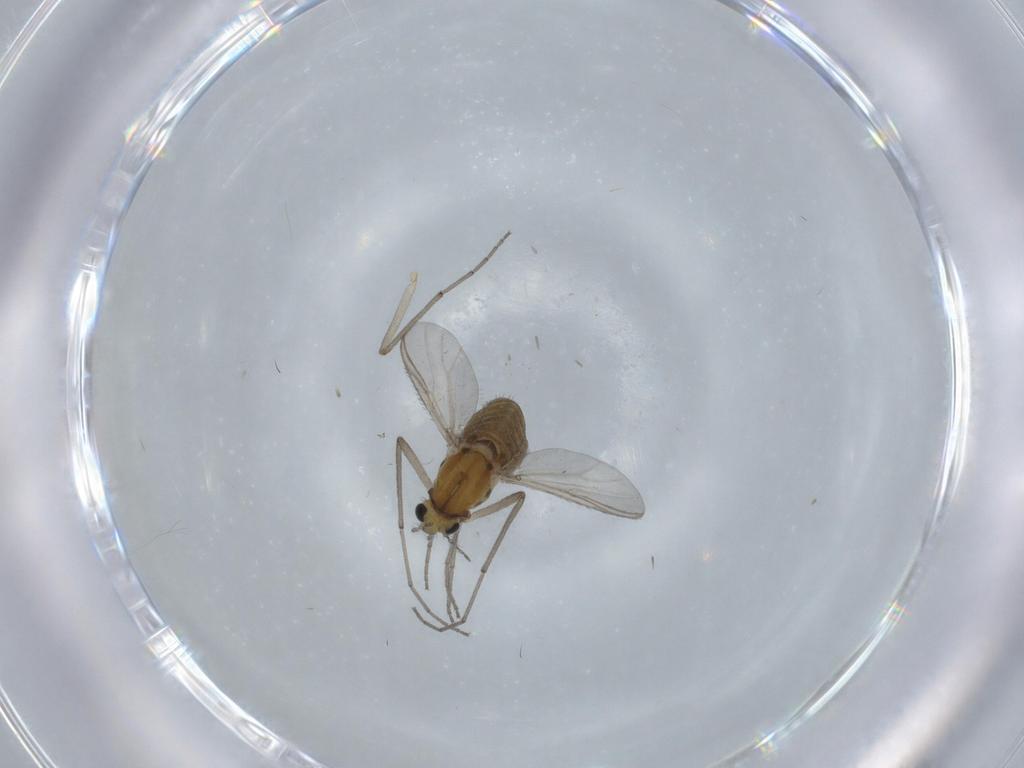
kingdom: Animalia
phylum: Arthropoda
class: Insecta
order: Diptera
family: Chironomidae
